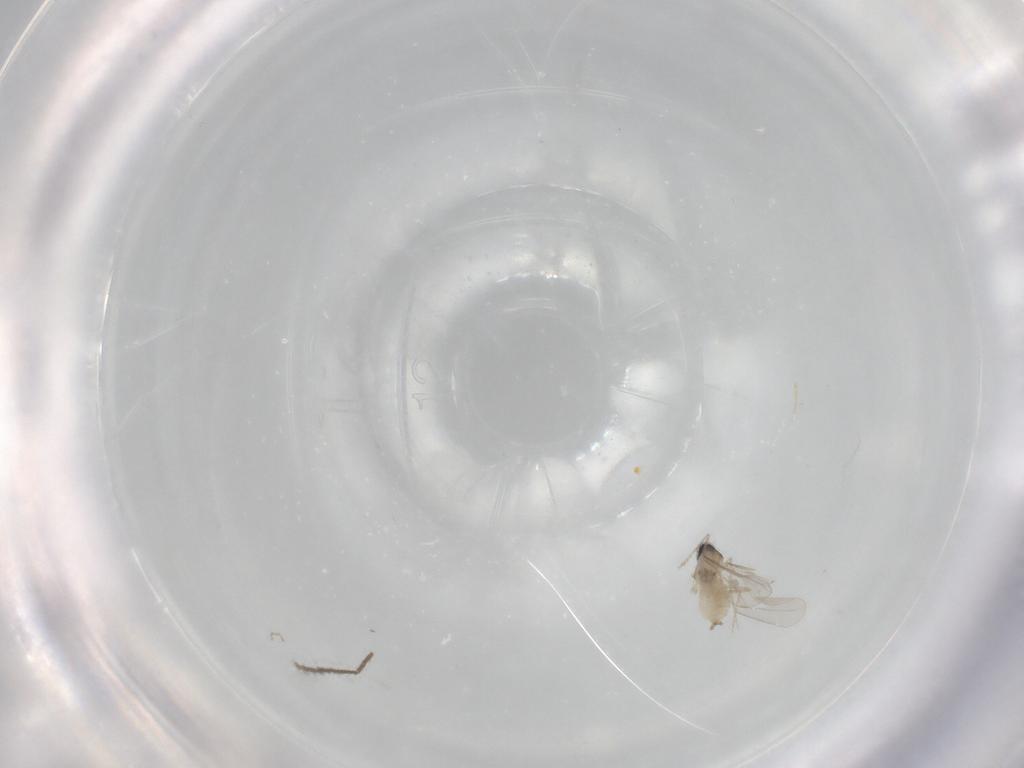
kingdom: Animalia
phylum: Arthropoda
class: Insecta
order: Diptera
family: Chironomidae
